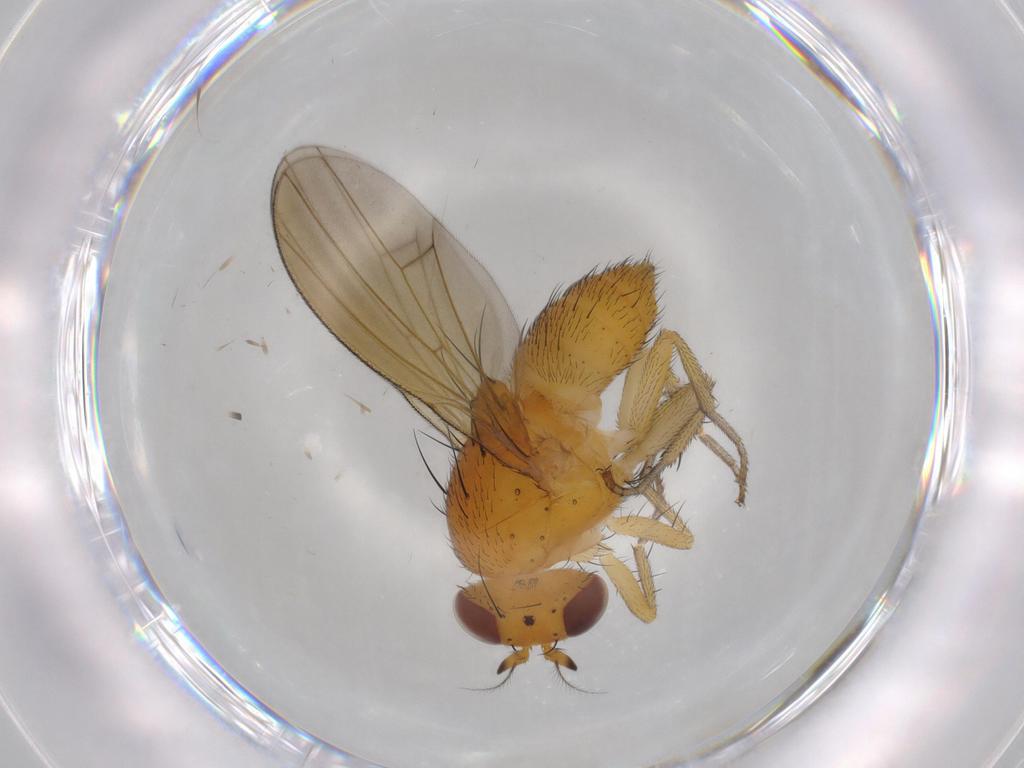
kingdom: Animalia
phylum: Arthropoda
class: Insecta
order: Diptera
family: Lauxaniidae
